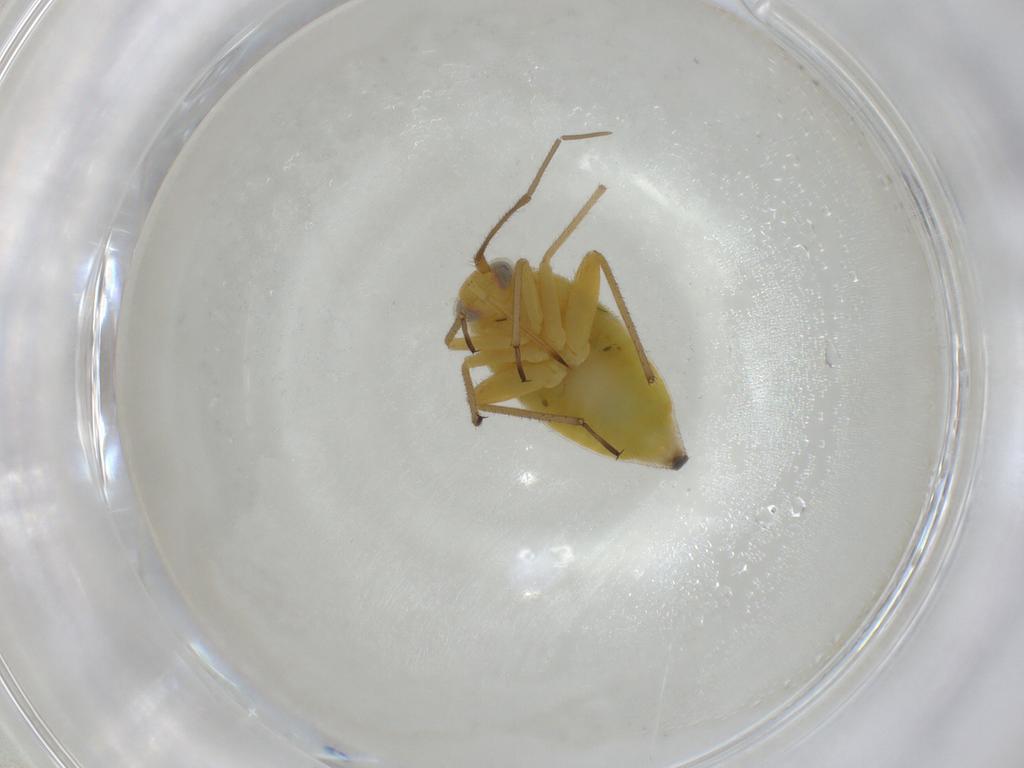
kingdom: Animalia
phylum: Arthropoda
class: Insecta
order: Hemiptera
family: Miridae
